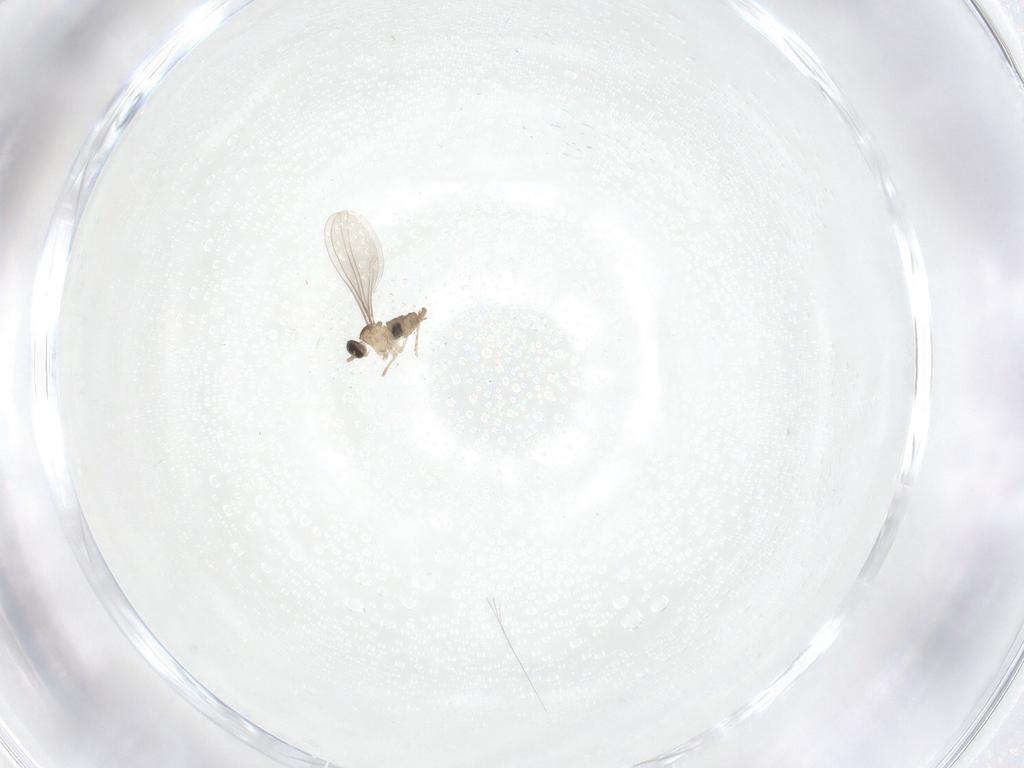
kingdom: Animalia
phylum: Arthropoda
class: Insecta
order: Diptera
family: Cecidomyiidae
